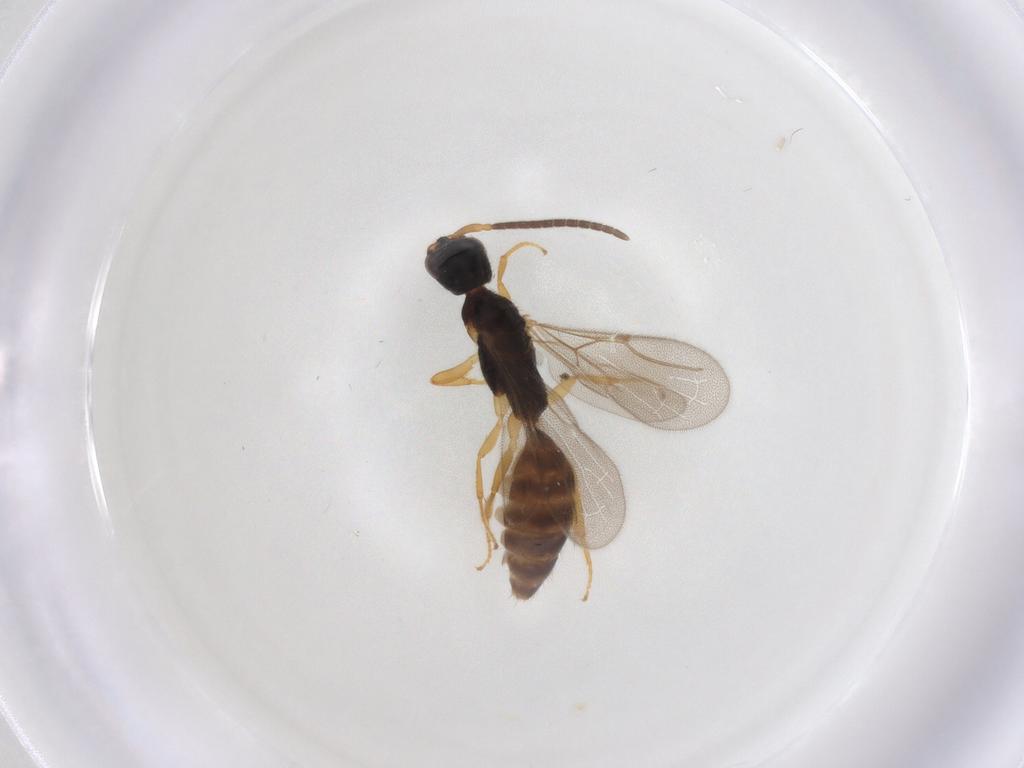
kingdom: Animalia
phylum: Arthropoda
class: Insecta
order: Hymenoptera
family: Bethylidae
